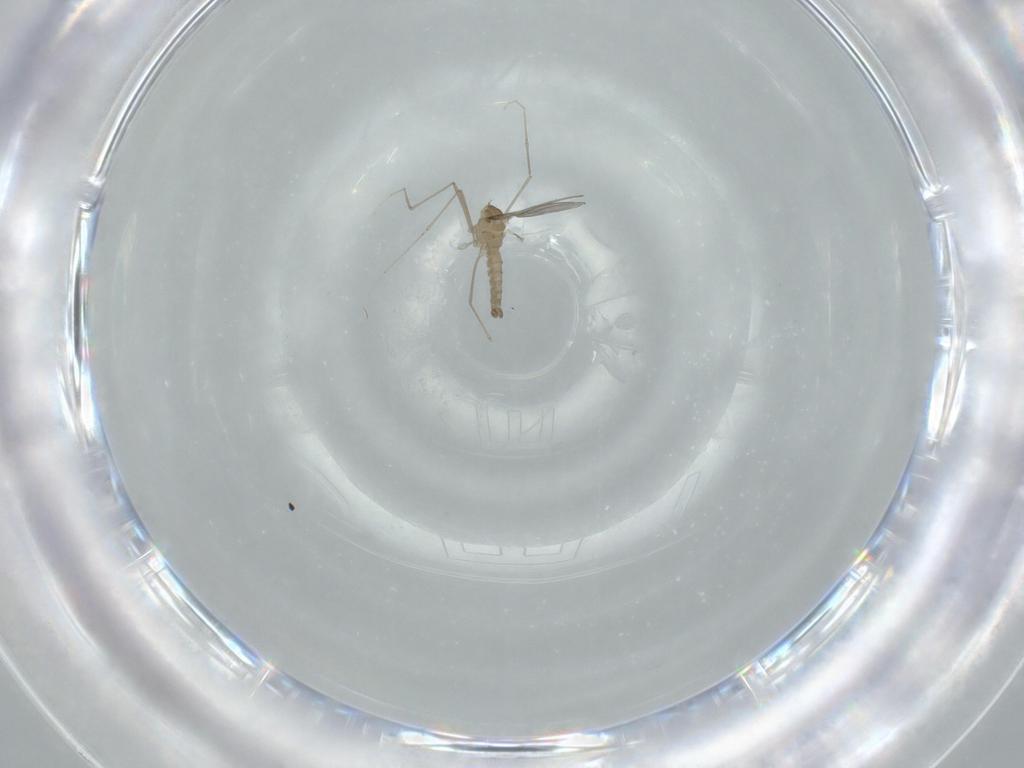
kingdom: Animalia
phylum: Arthropoda
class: Insecta
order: Diptera
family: Cecidomyiidae
